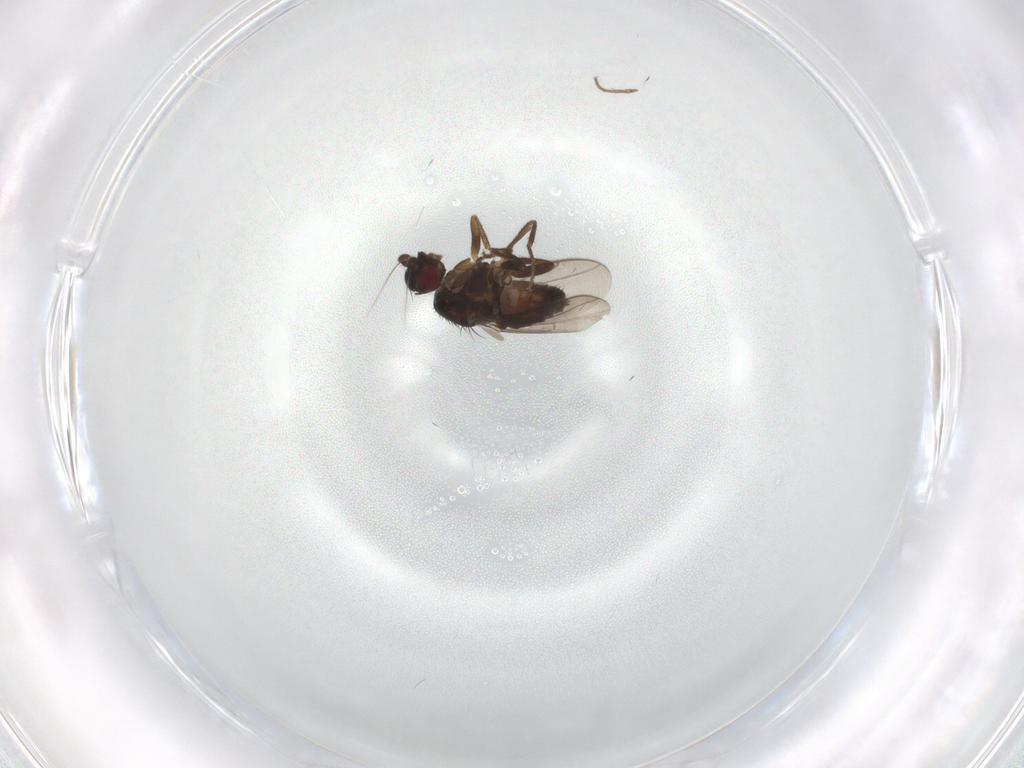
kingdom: Animalia
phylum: Arthropoda
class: Insecta
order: Diptera
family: Sphaeroceridae
